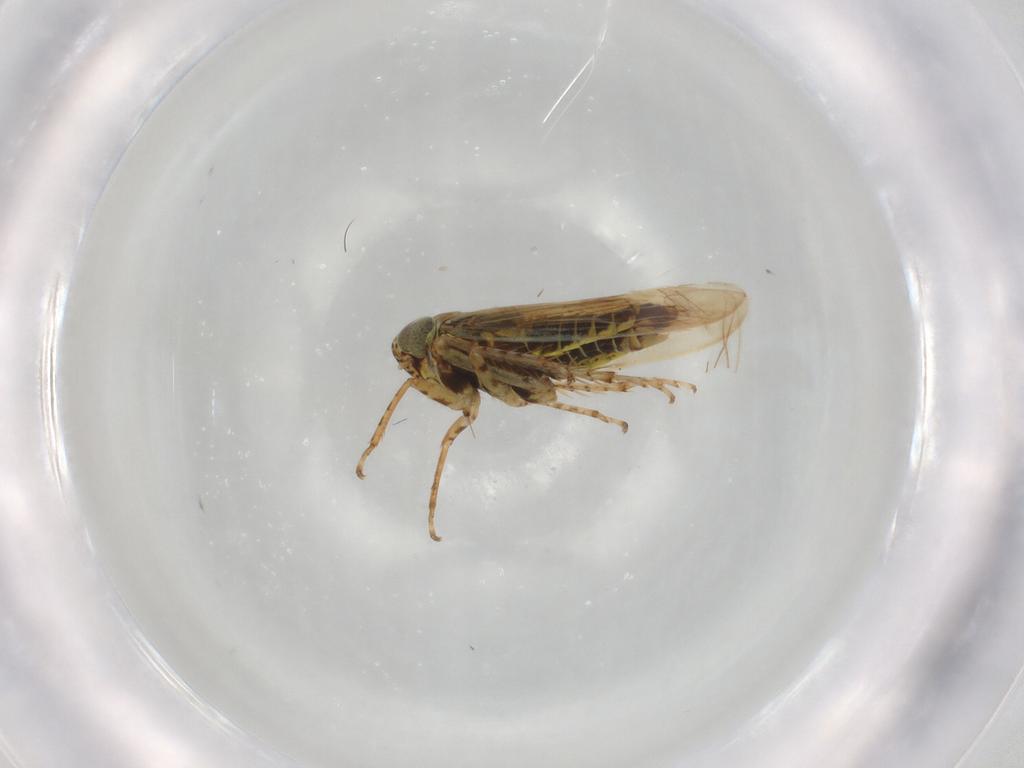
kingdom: Animalia
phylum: Arthropoda
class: Insecta
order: Hemiptera
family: Cicadellidae
